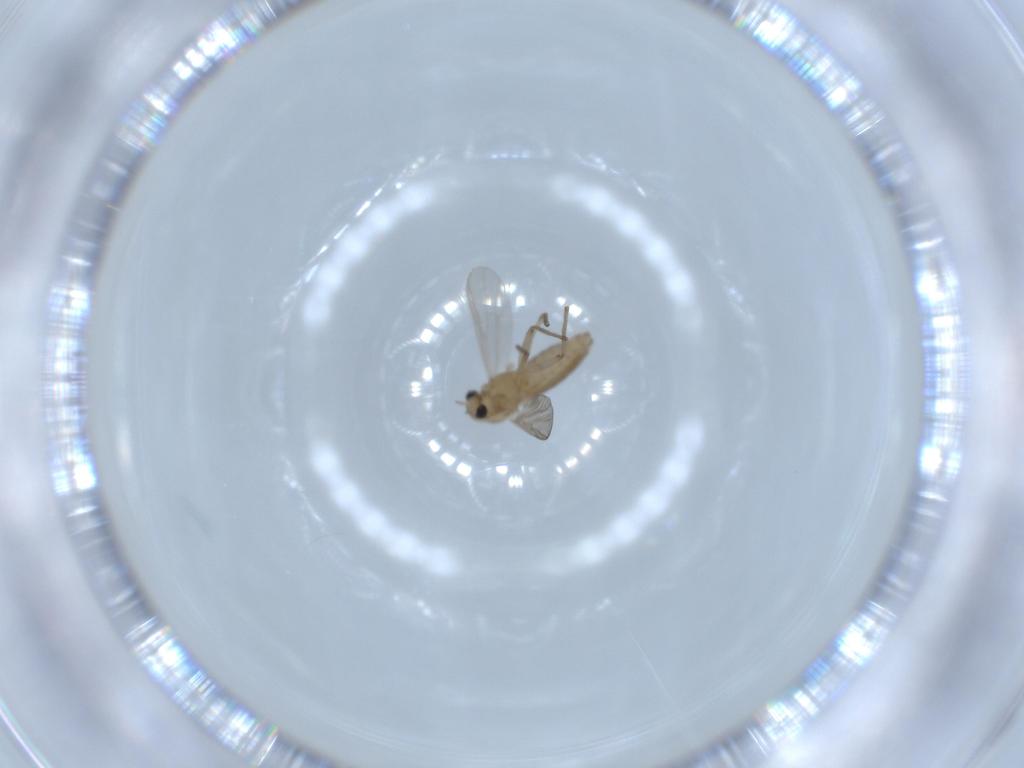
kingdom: Animalia
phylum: Arthropoda
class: Insecta
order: Diptera
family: Chironomidae
